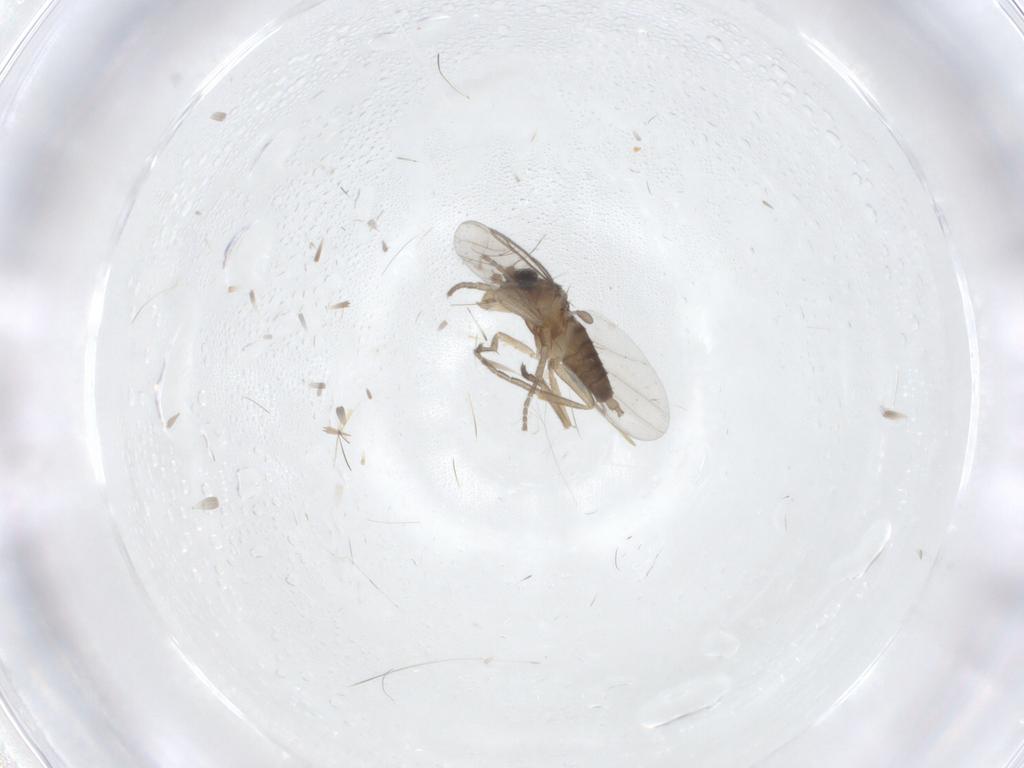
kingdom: Animalia
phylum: Arthropoda
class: Insecta
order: Diptera
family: Phoridae
